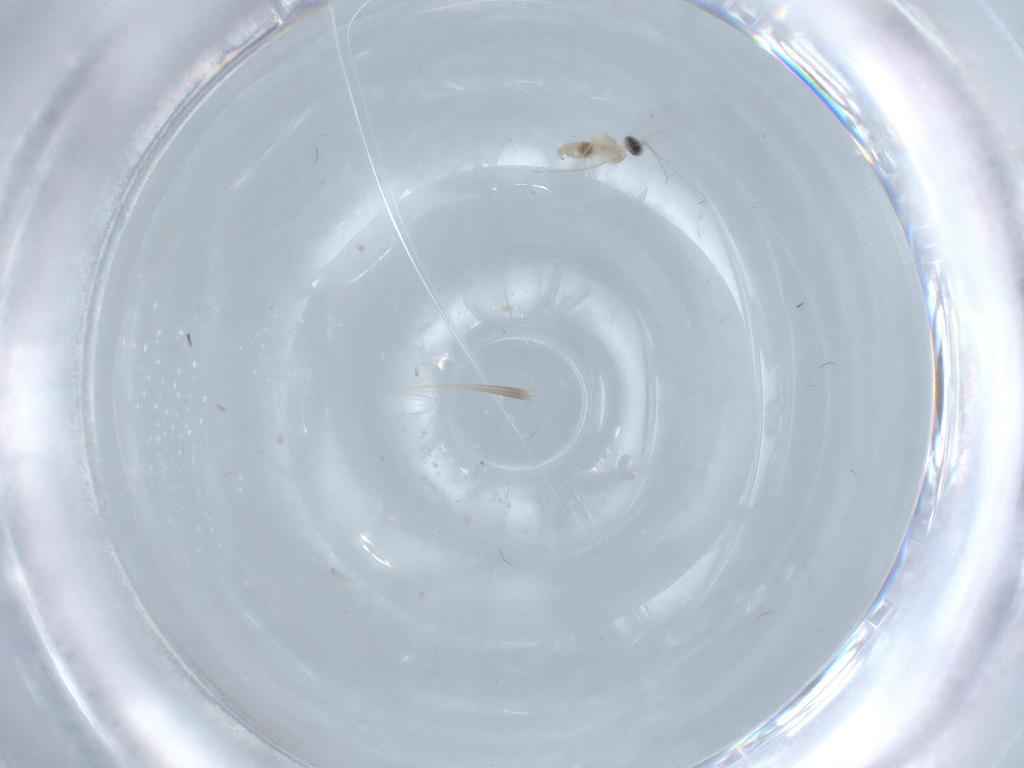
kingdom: Animalia
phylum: Arthropoda
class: Insecta
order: Diptera
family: Cecidomyiidae
